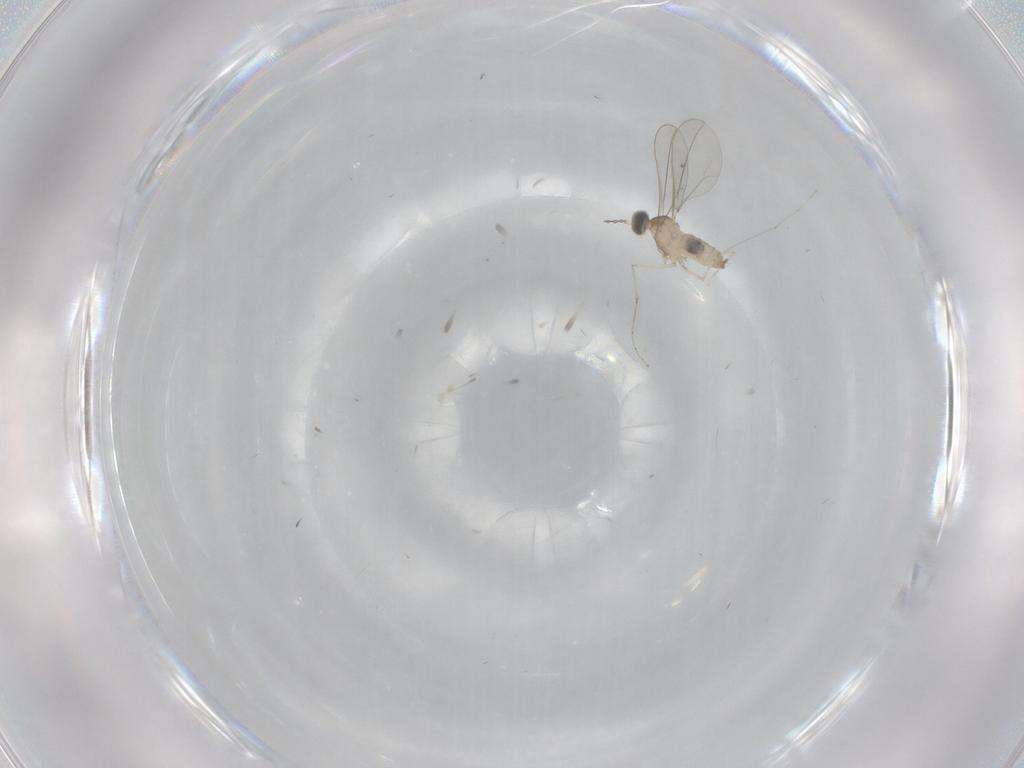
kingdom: Animalia
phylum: Arthropoda
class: Insecta
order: Diptera
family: Cecidomyiidae
